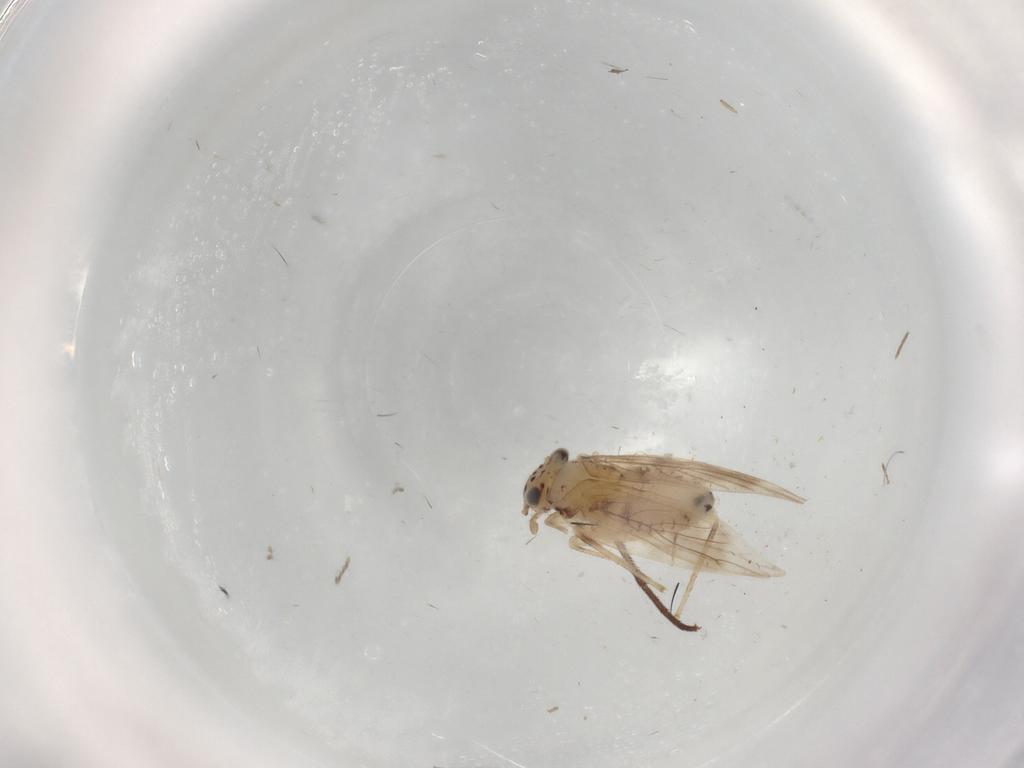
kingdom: Animalia
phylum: Arthropoda
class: Insecta
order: Psocodea
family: Lepidopsocidae
